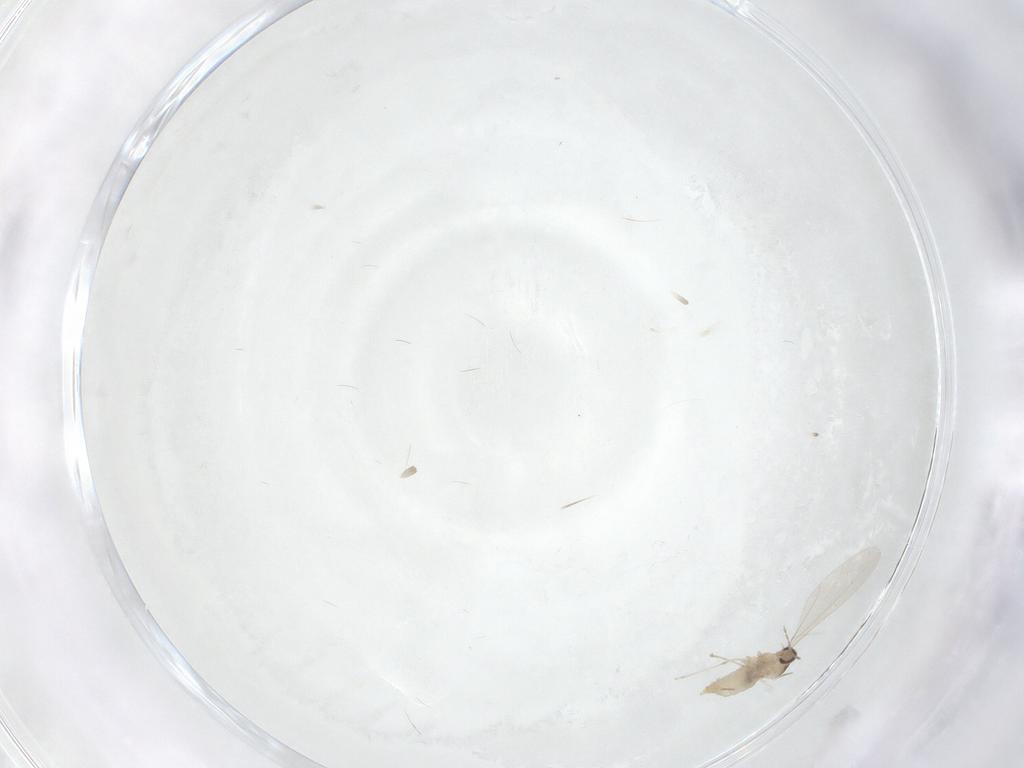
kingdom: Animalia
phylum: Arthropoda
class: Insecta
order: Diptera
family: Cecidomyiidae
